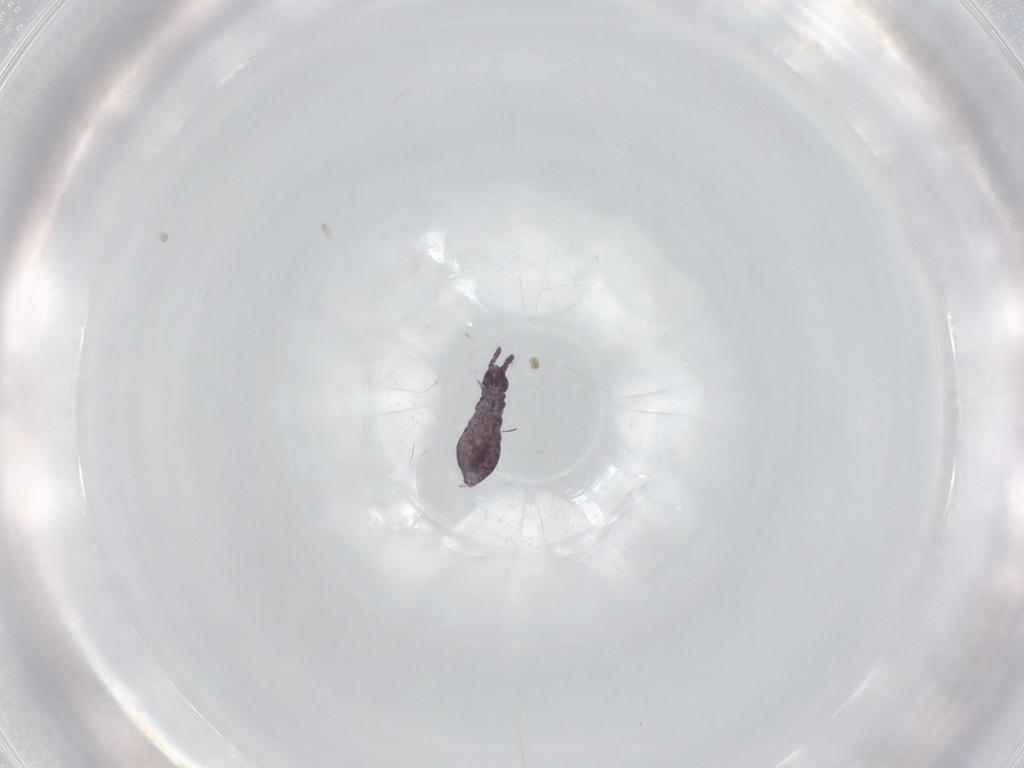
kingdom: Animalia
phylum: Arthropoda
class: Collembola
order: Poduromorpha
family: Brachystomellidae
